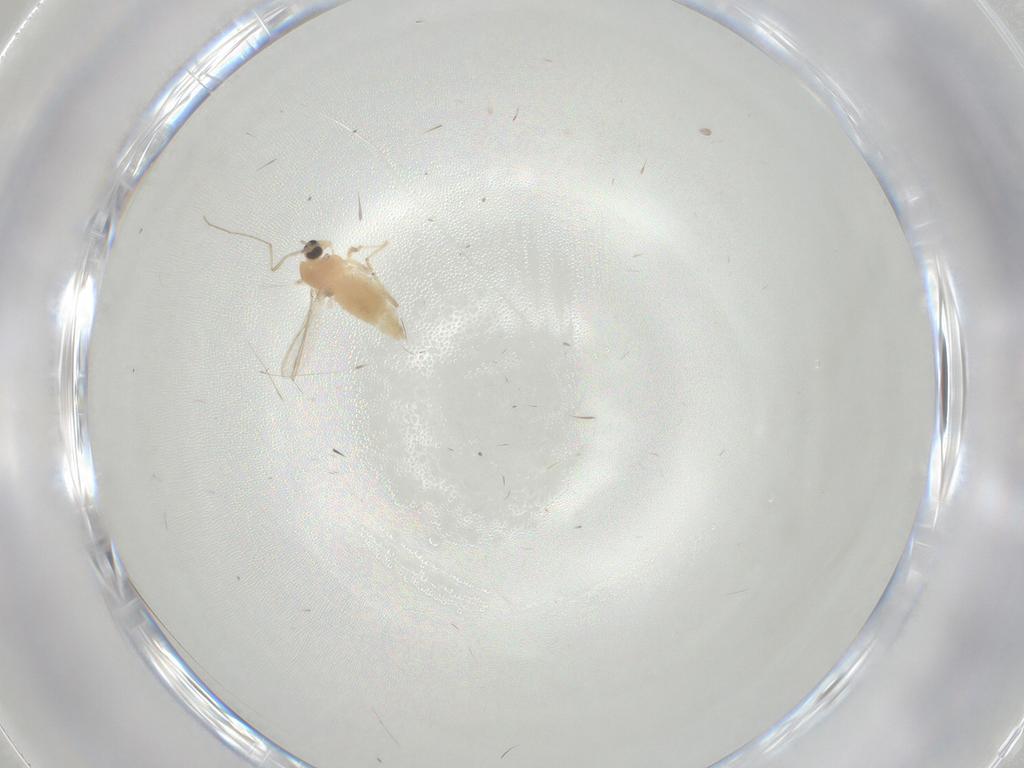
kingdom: Animalia
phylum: Arthropoda
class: Insecta
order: Diptera
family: Chironomidae
